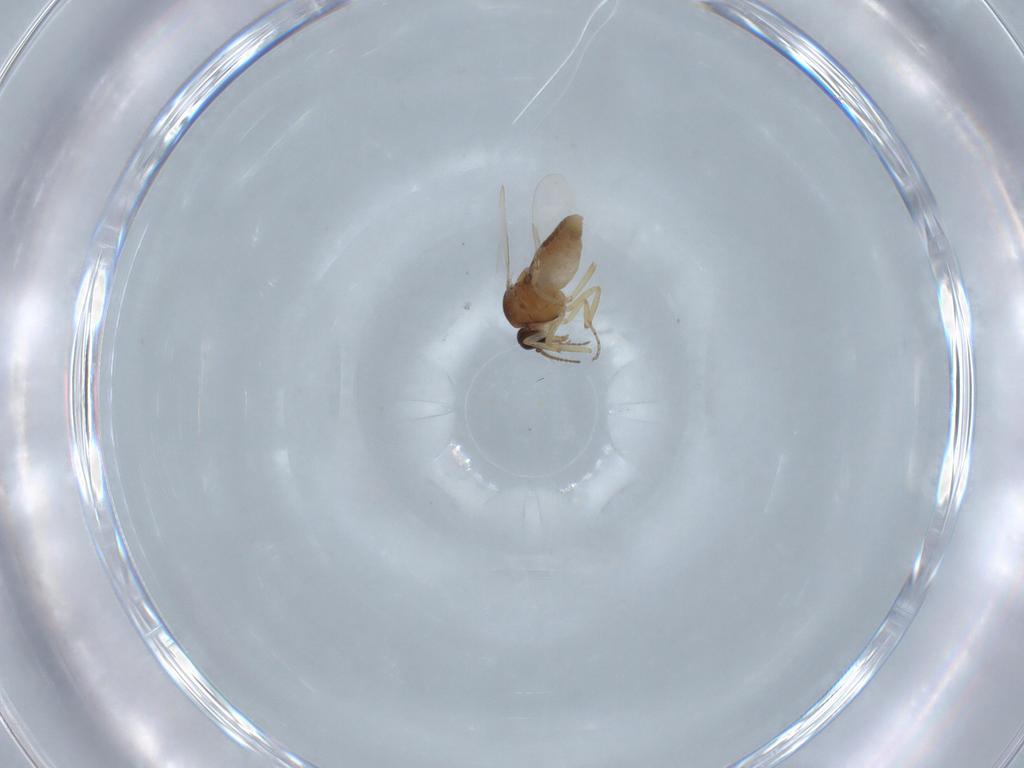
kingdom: Animalia
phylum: Arthropoda
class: Insecta
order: Diptera
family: Ceratopogonidae
